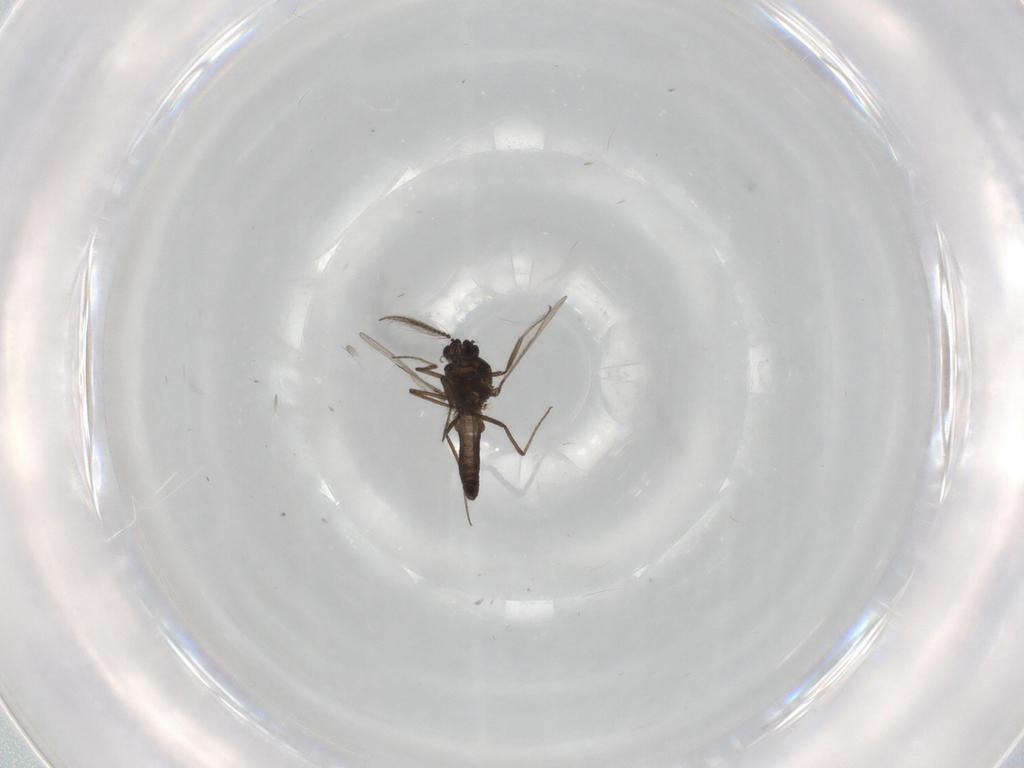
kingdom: Animalia
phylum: Arthropoda
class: Insecta
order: Diptera
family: Ceratopogonidae
